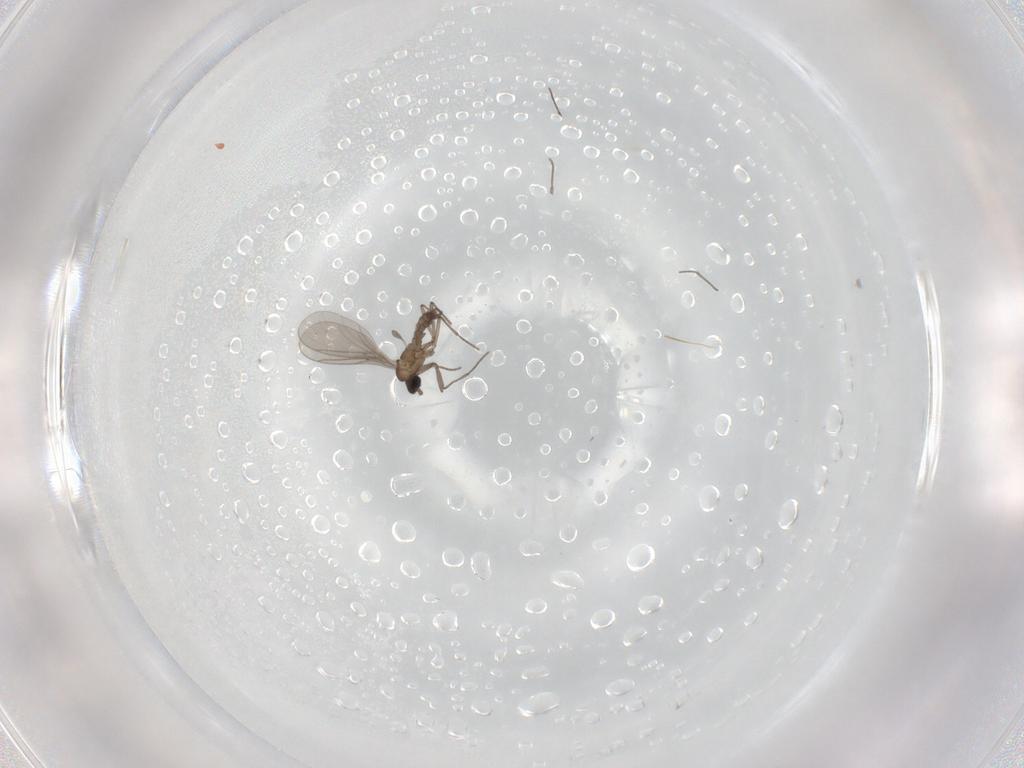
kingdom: Animalia
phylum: Arthropoda
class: Insecta
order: Diptera
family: Sciaridae
